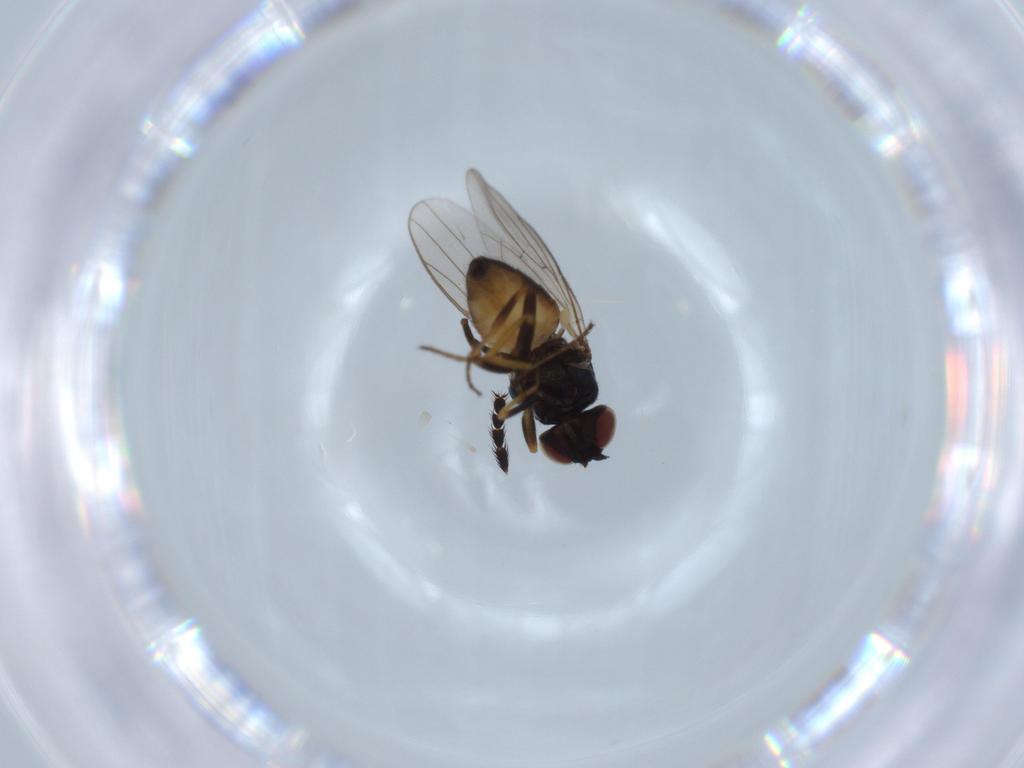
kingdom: Animalia
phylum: Arthropoda
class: Insecta
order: Diptera
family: Chloropidae
